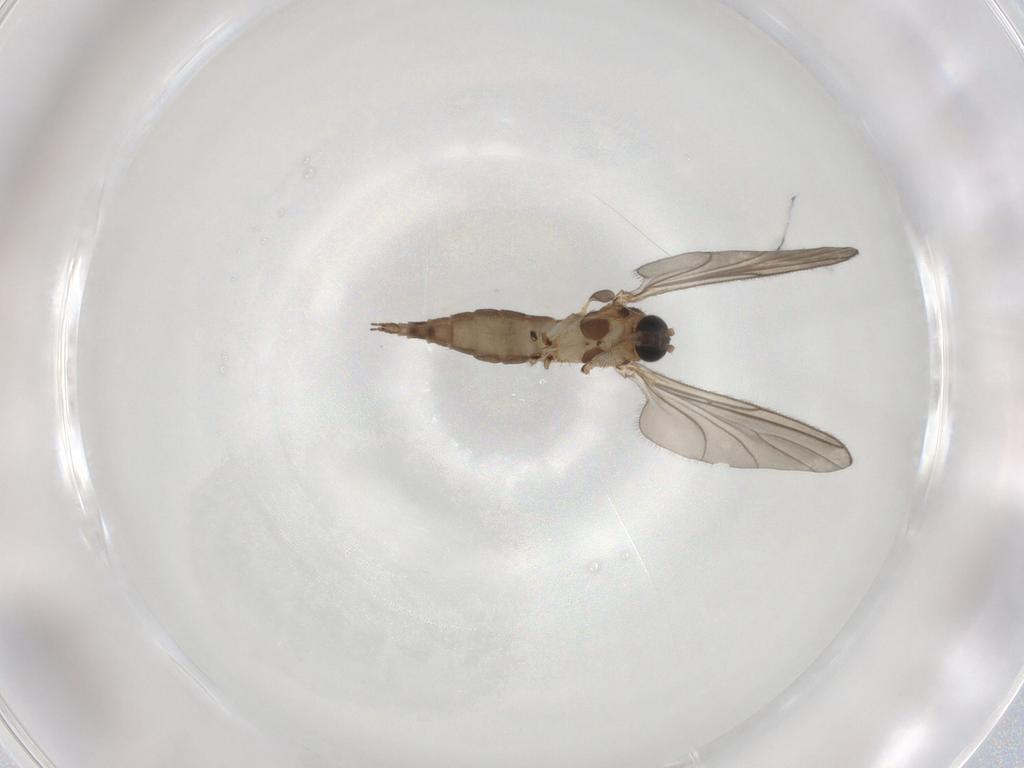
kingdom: Animalia
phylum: Arthropoda
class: Insecta
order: Diptera
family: Sciaridae
